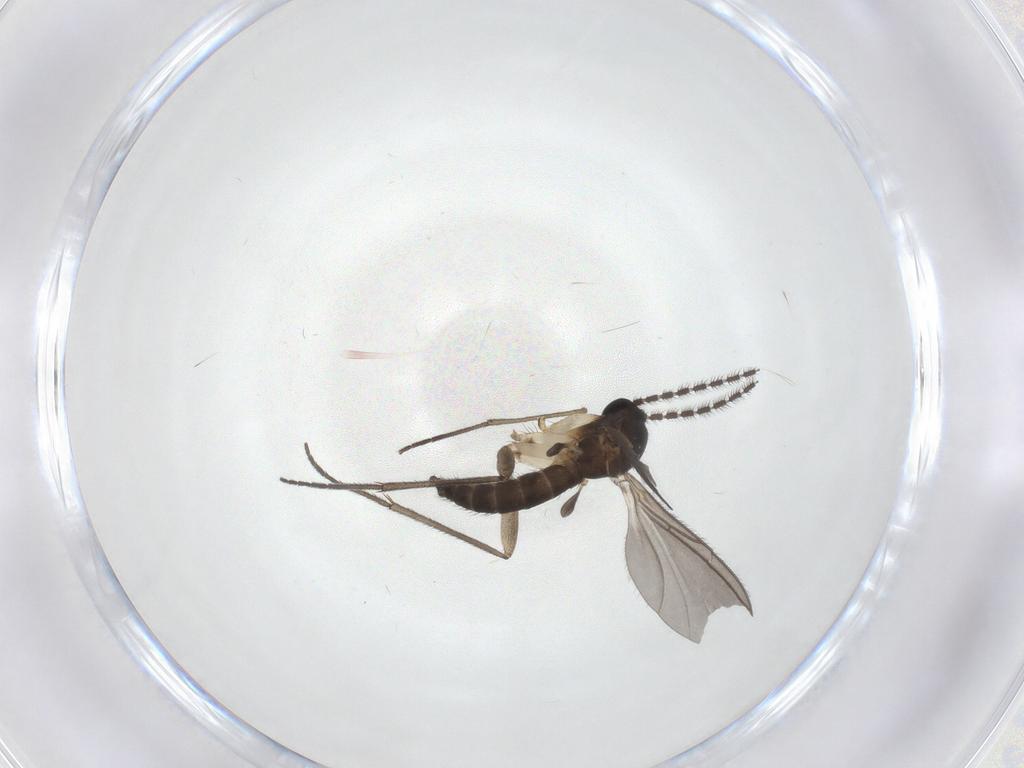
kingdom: Animalia
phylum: Arthropoda
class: Insecta
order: Diptera
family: Sciaridae
